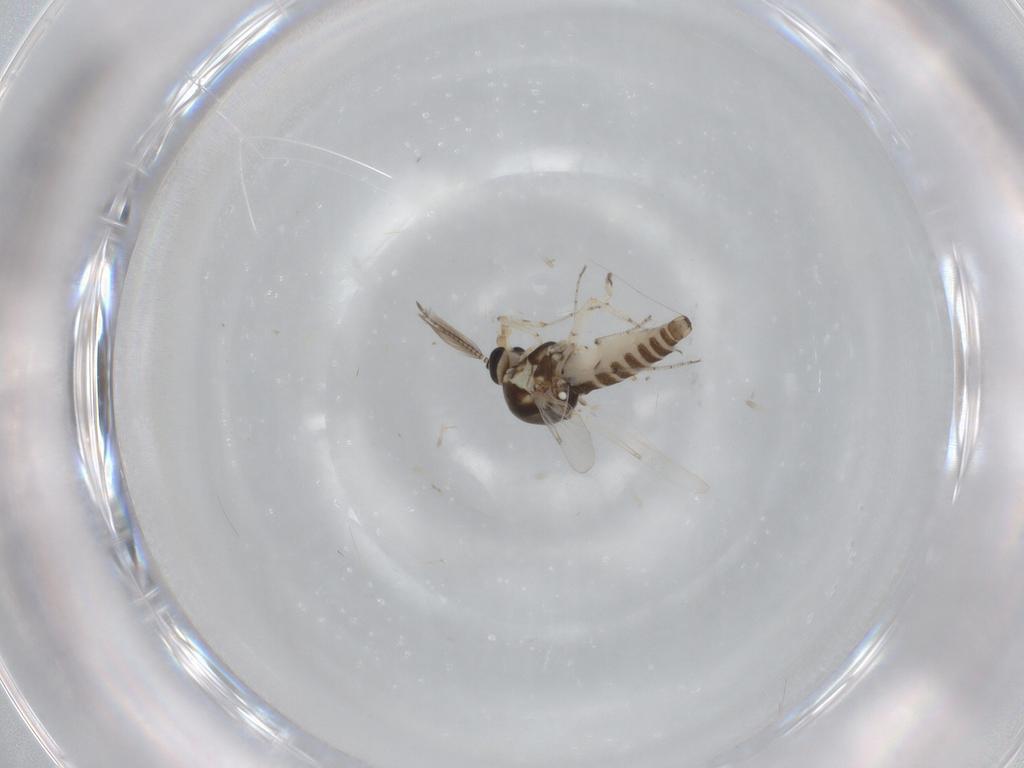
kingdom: Animalia
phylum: Arthropoda
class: Insecta
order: Diptera
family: Ceratopogonidae
